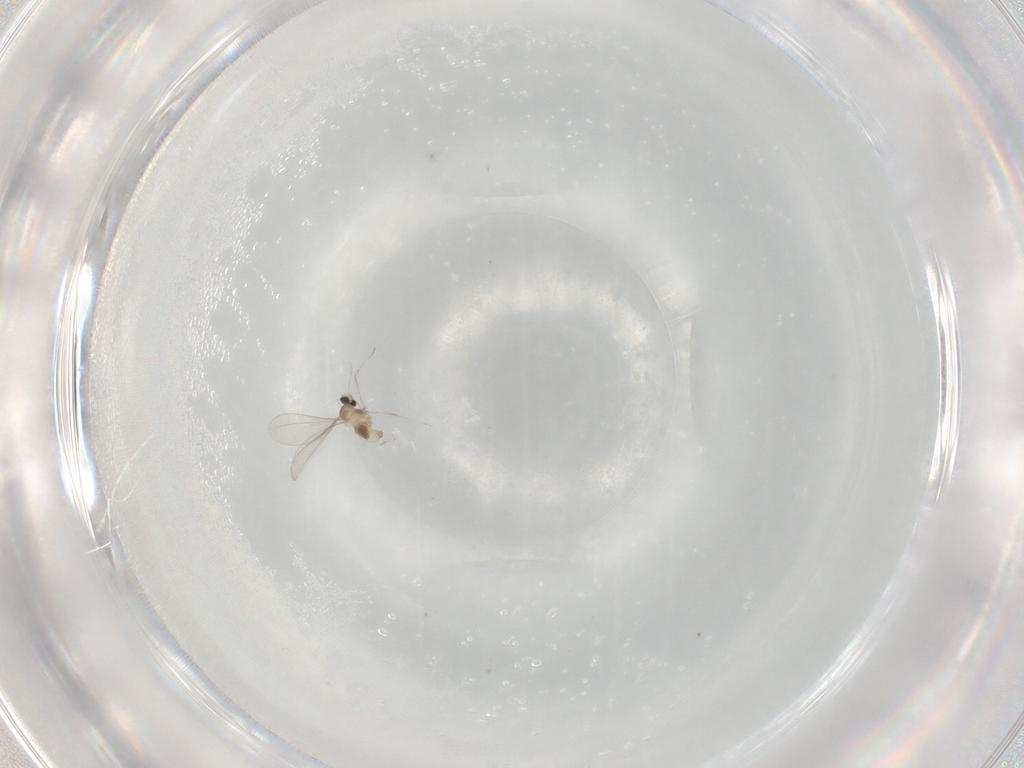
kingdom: Animalia
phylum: Arthropoda
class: Insecta
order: Diptera
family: Cecidomyiidae
